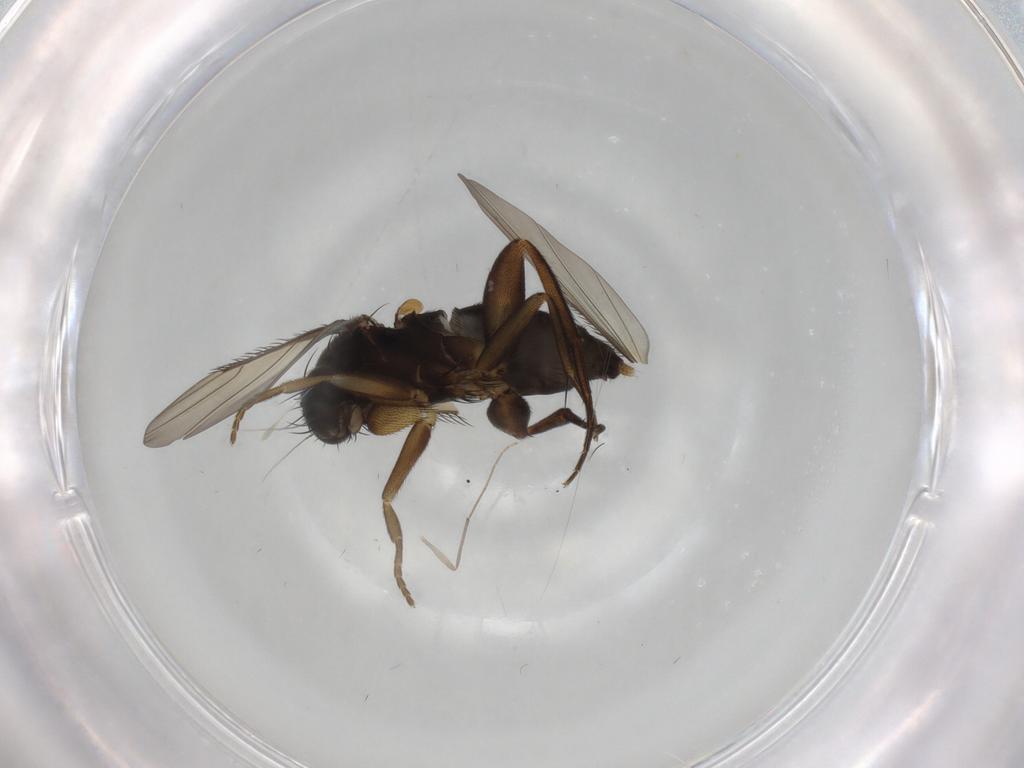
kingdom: Animalia
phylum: Arthropoda
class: Insecta
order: Diptera
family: Phoridae
